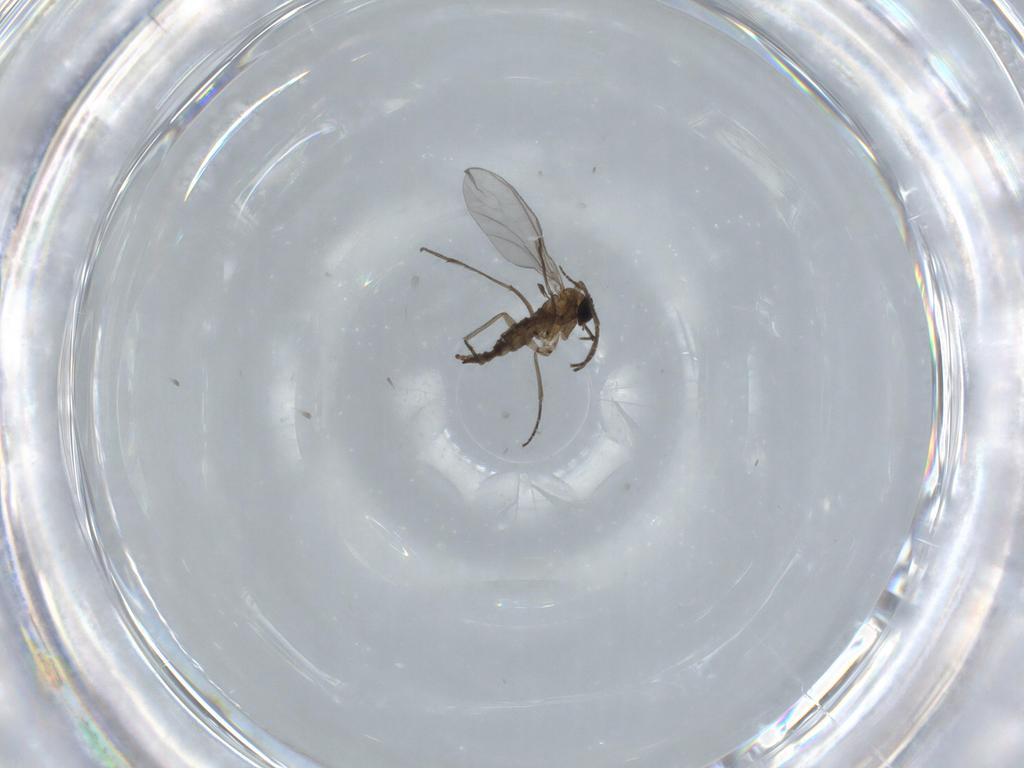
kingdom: Animalia
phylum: Arthropoda
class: Insecta
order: Diptera
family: Sciaridae
